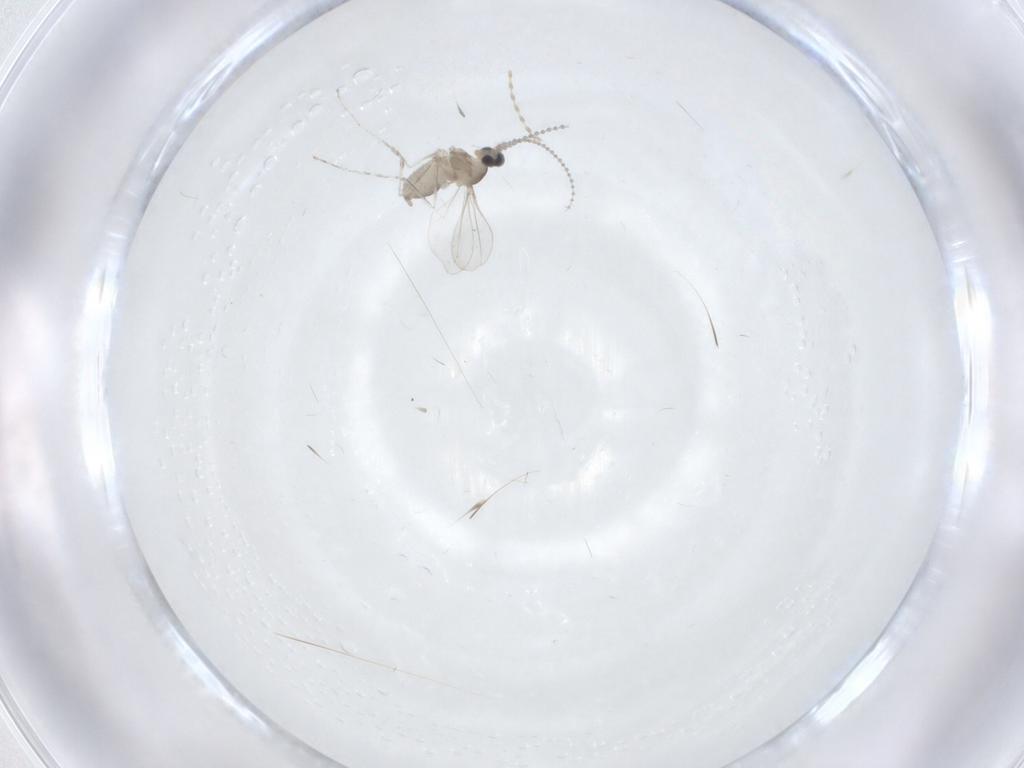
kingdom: Animalia
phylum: Arthropoda
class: Insecta
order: Diptera
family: Cecidomyiidae
